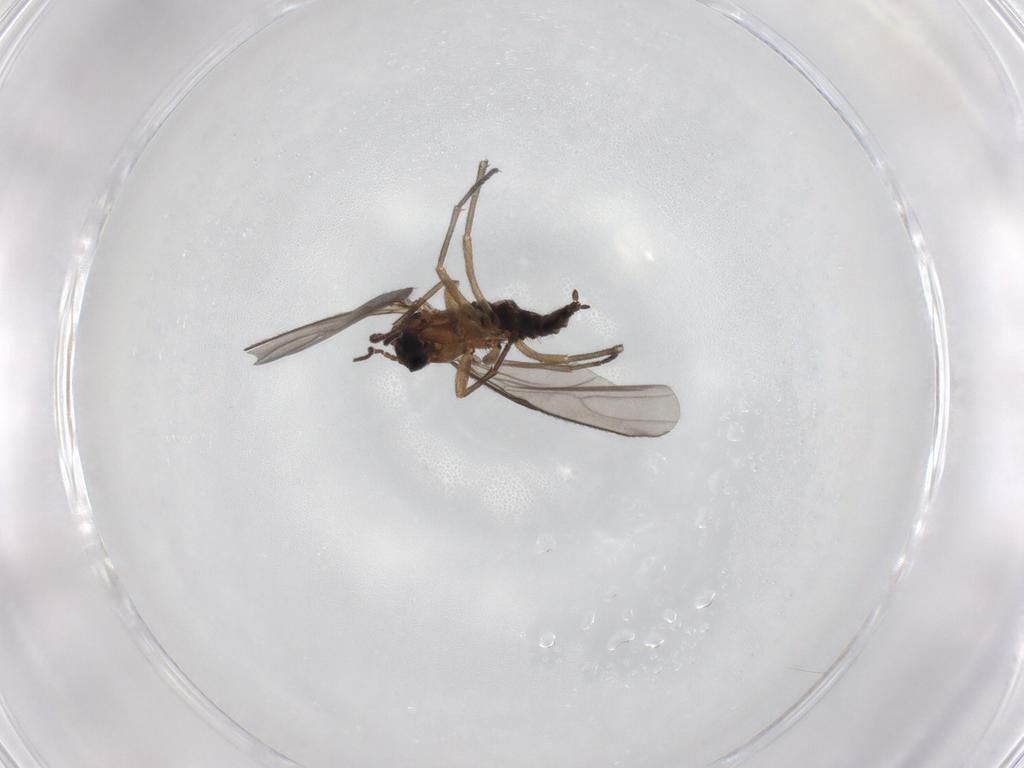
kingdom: Animalia
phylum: Arthropoda
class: Insecta
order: Diptera
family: Sciaridae
